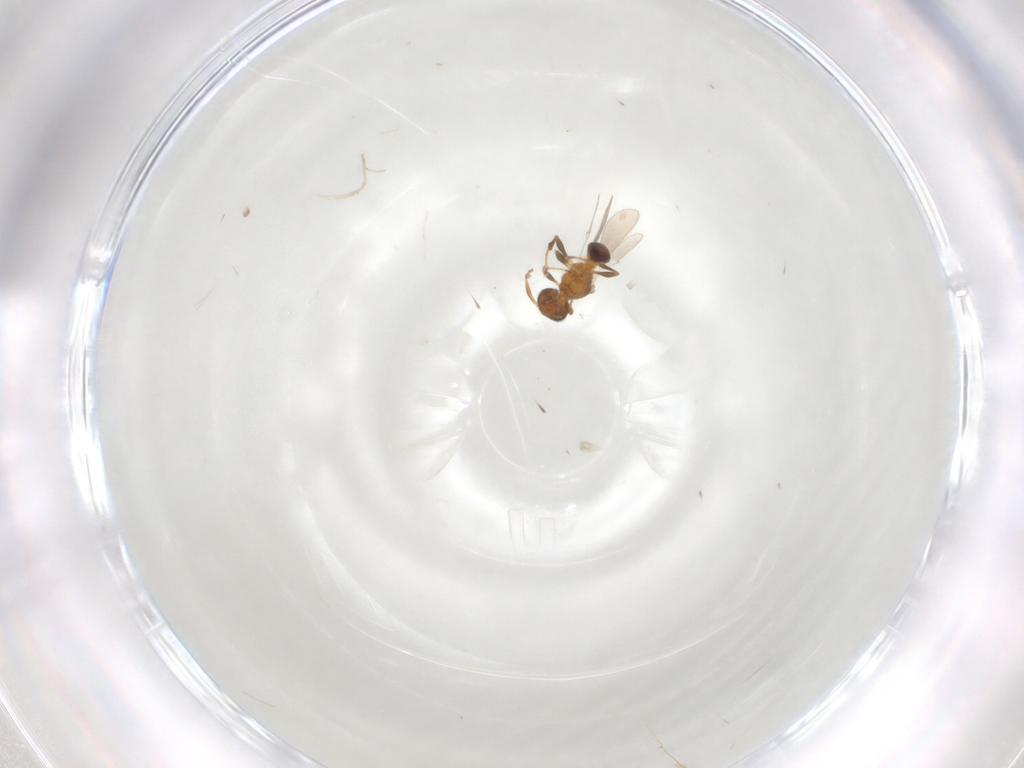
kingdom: Animalia
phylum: Arthropoda
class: Insecta
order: Hymenoptera
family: Platygastridae
